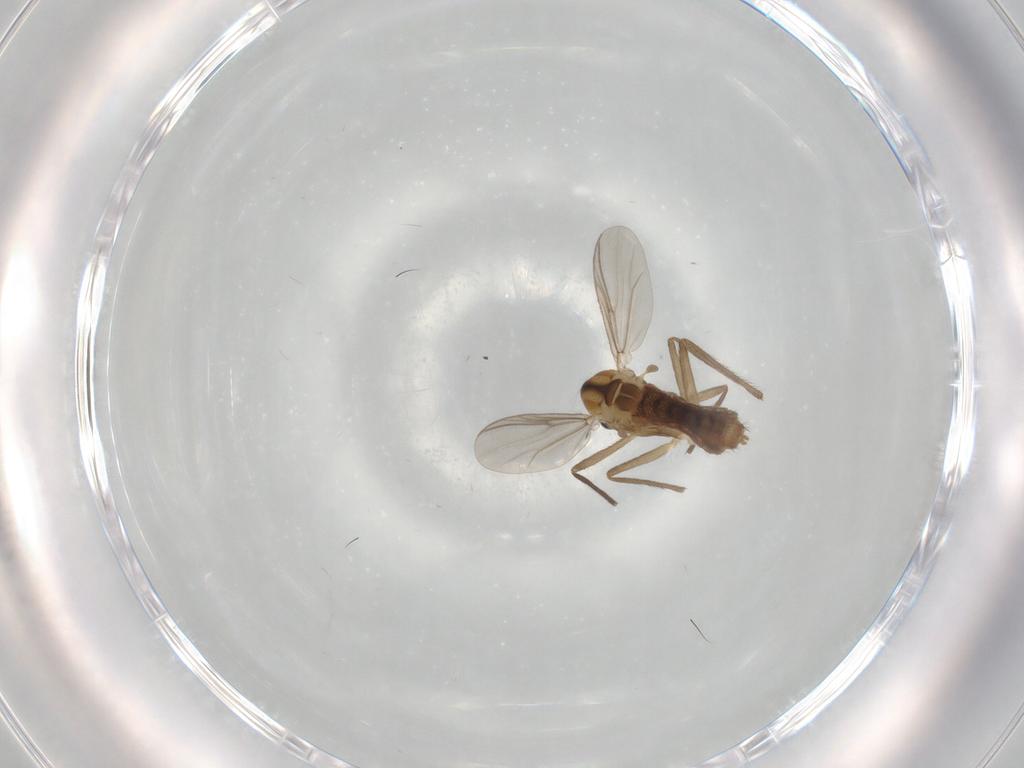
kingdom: Animalia
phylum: Arthropoda
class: Insecta
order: Diptera
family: Chironomidae
